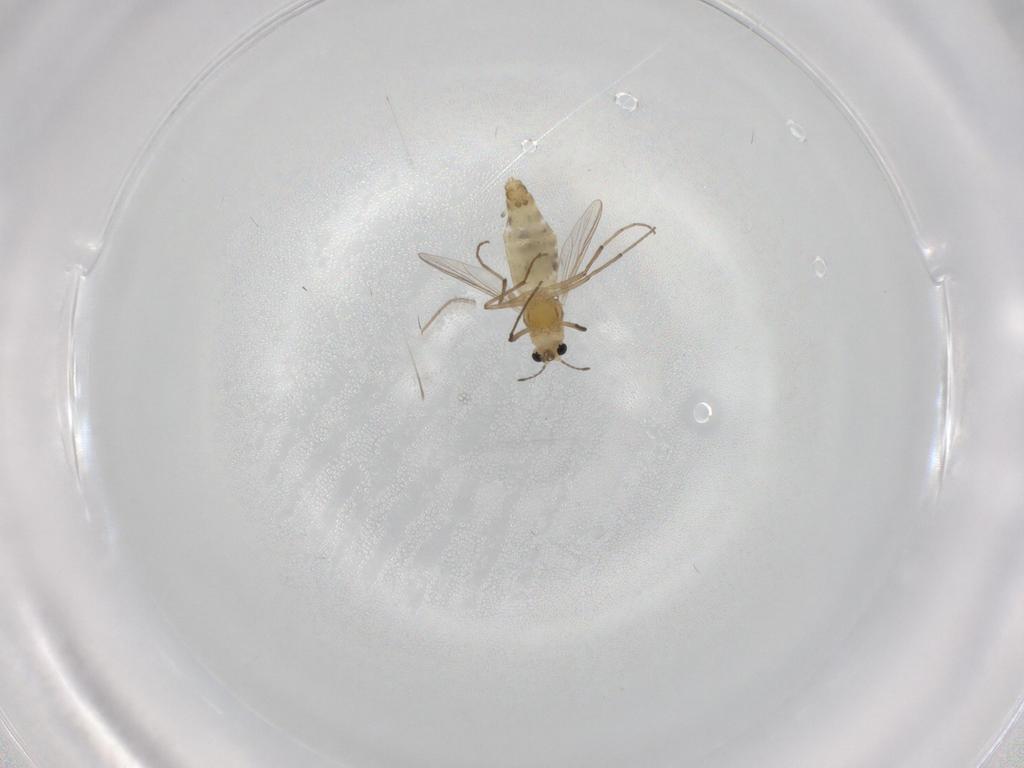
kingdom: Animalia
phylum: Arthropoda
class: Insecta
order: Diptera
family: Chironomidae
